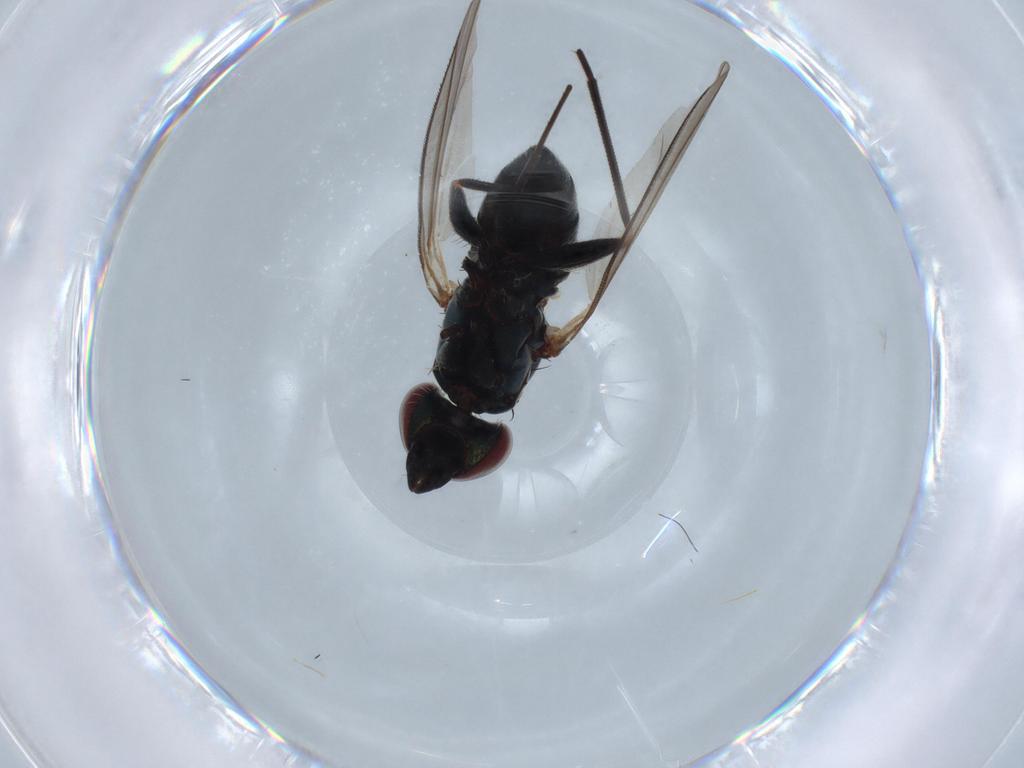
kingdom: Animalia
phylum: Arthropoda
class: Insecta
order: Diptera
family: Dolichopodidae
